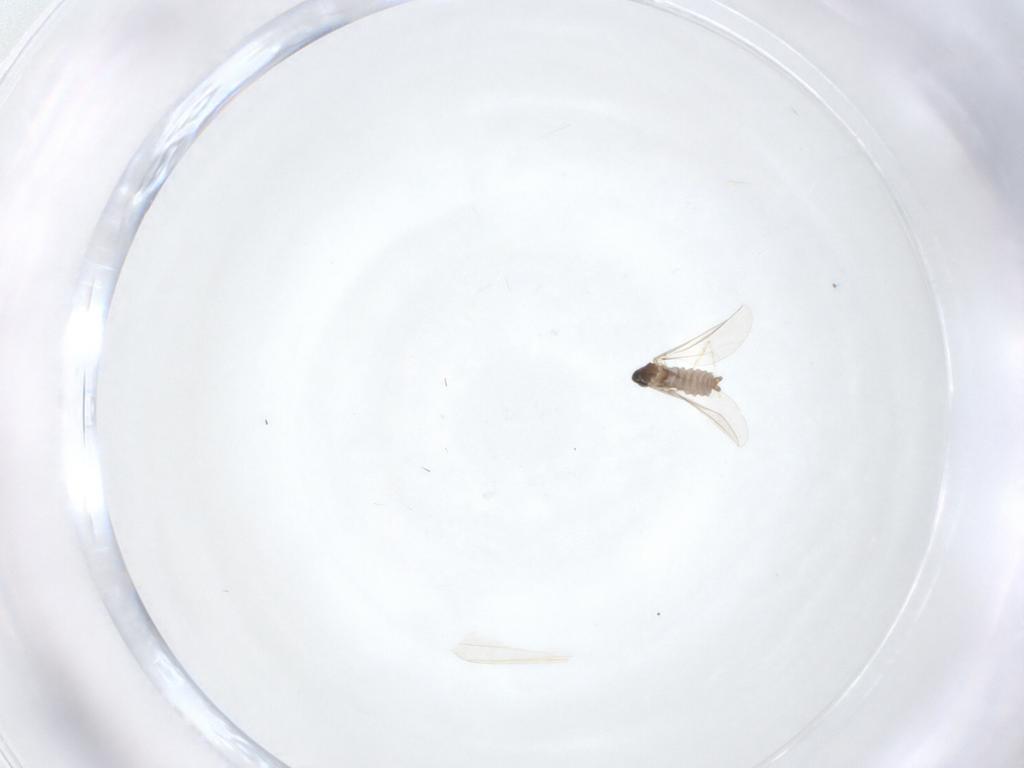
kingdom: Animalia
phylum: Arthropoda
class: Insecta
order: Diptera
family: Cecidomyiidae
